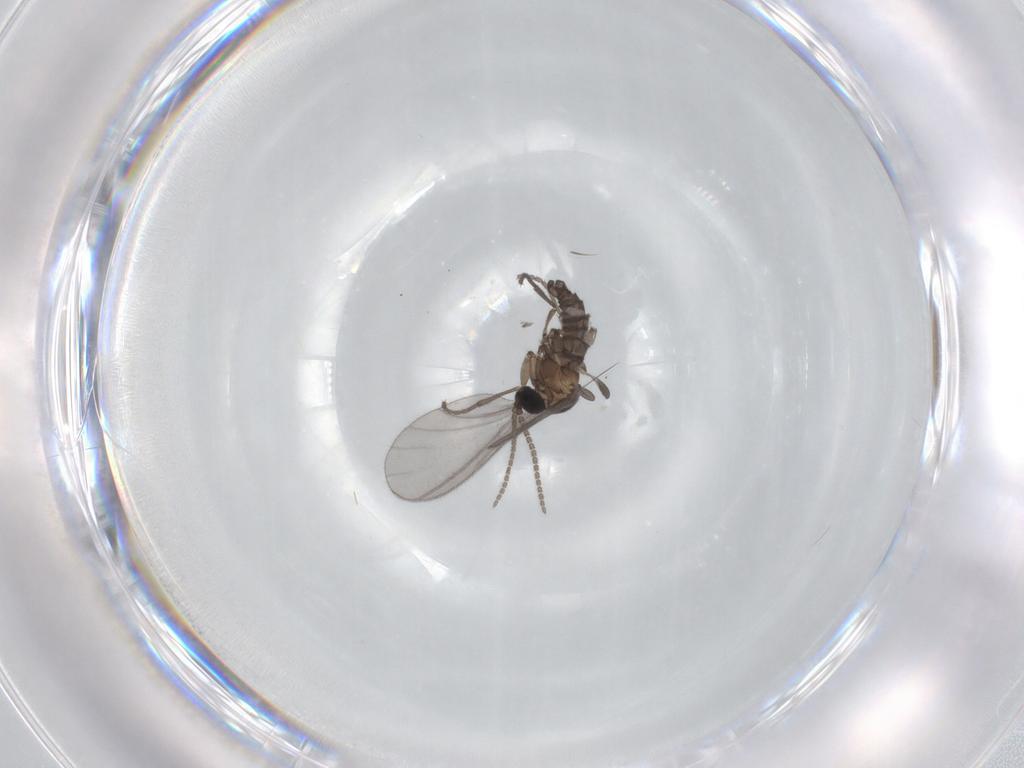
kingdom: Animalia
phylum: Arthropoda
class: Insecta
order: Diptera
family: Sciaridae
